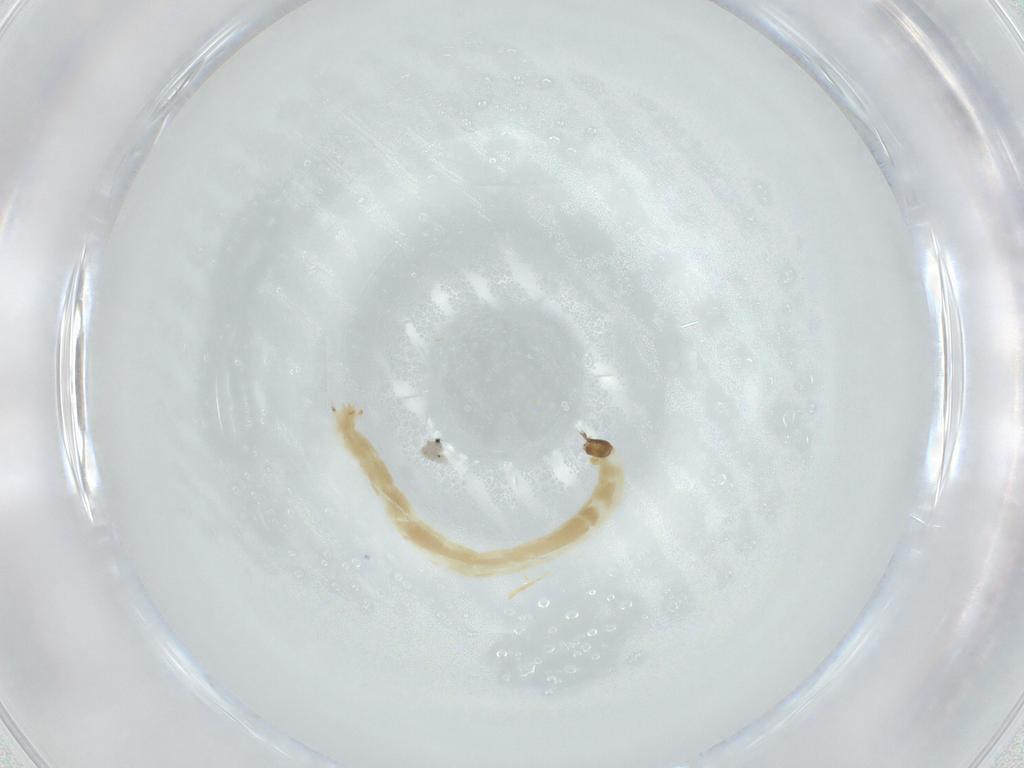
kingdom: Animalia
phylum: Arthropoda
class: Insecta
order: Diptera
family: Chironomidae
